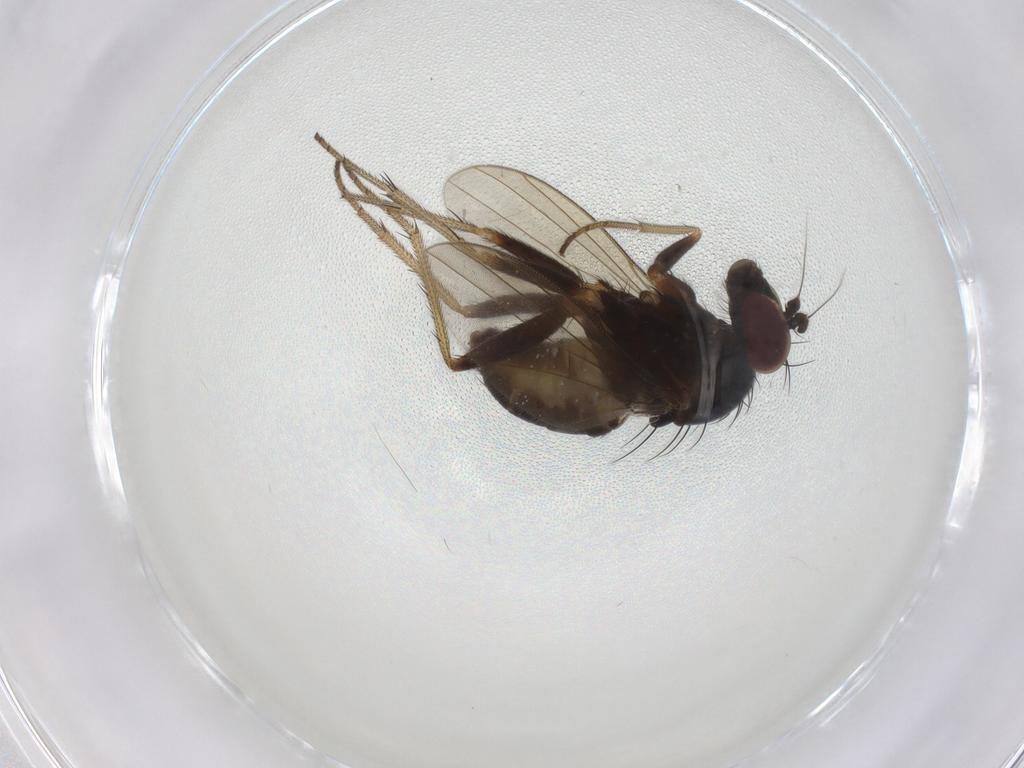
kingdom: Animalia
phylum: Arthropoda
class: Insecta
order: Diptera
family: Dolichopodidae
